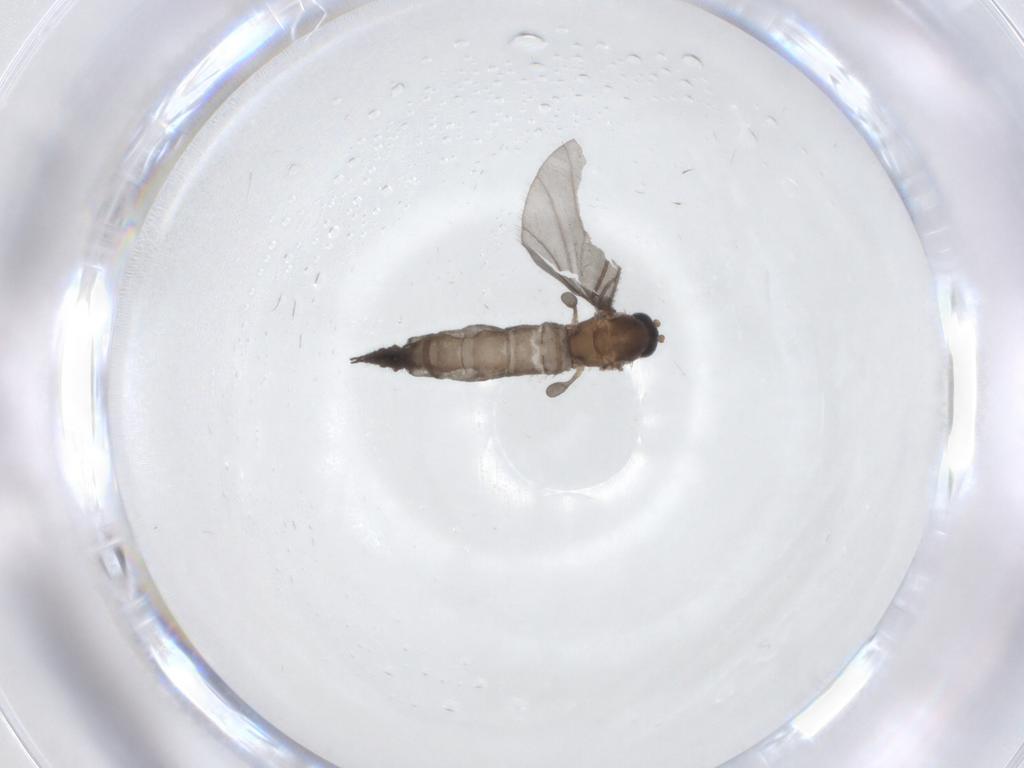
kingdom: Animalia
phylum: Arthropoda
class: Insecta
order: Diptera
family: Sciaridae
